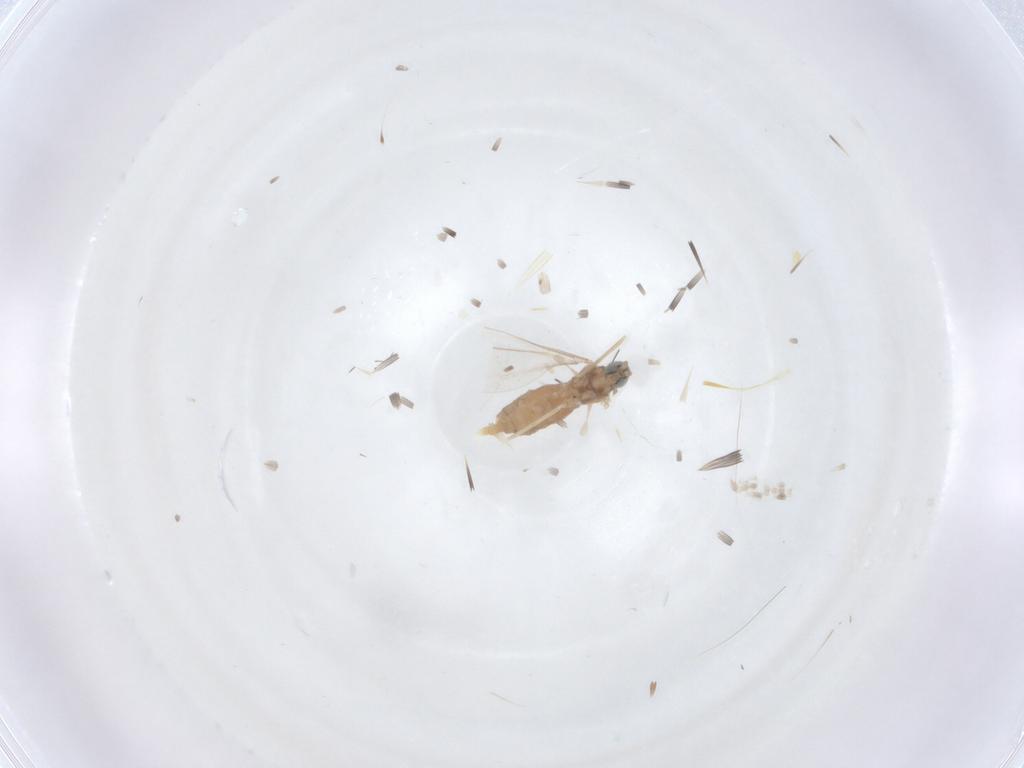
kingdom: Animalia
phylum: Arthropoda
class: Insecta
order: Diptera
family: Cecidomyiidae
